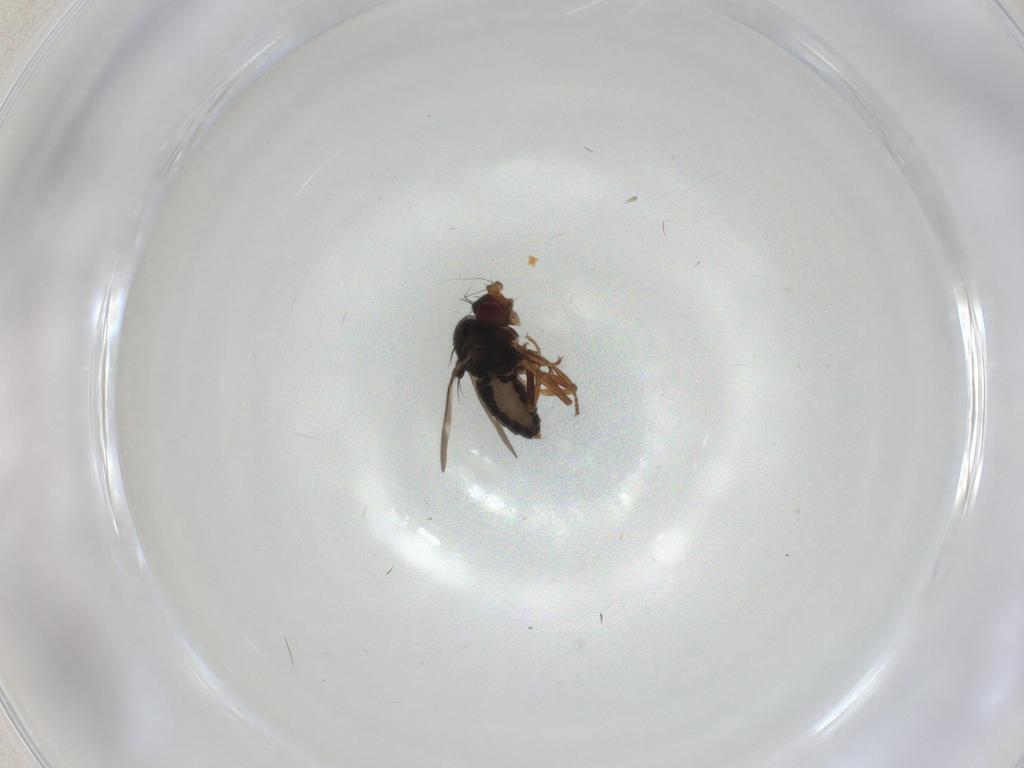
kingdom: Animalia
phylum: Arthropoda
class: Insecta
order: Diptera
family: Sphaeroceridae
